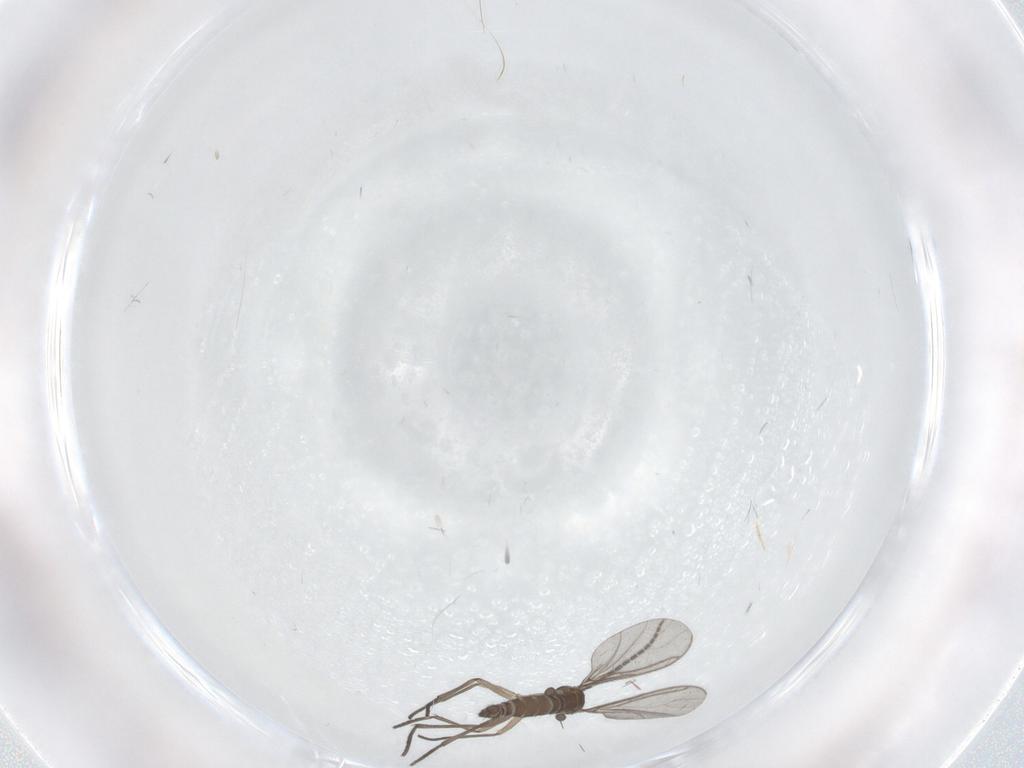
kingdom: Animalia
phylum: Arthropoda
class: Insecta
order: Diptera
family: Sciaridae
